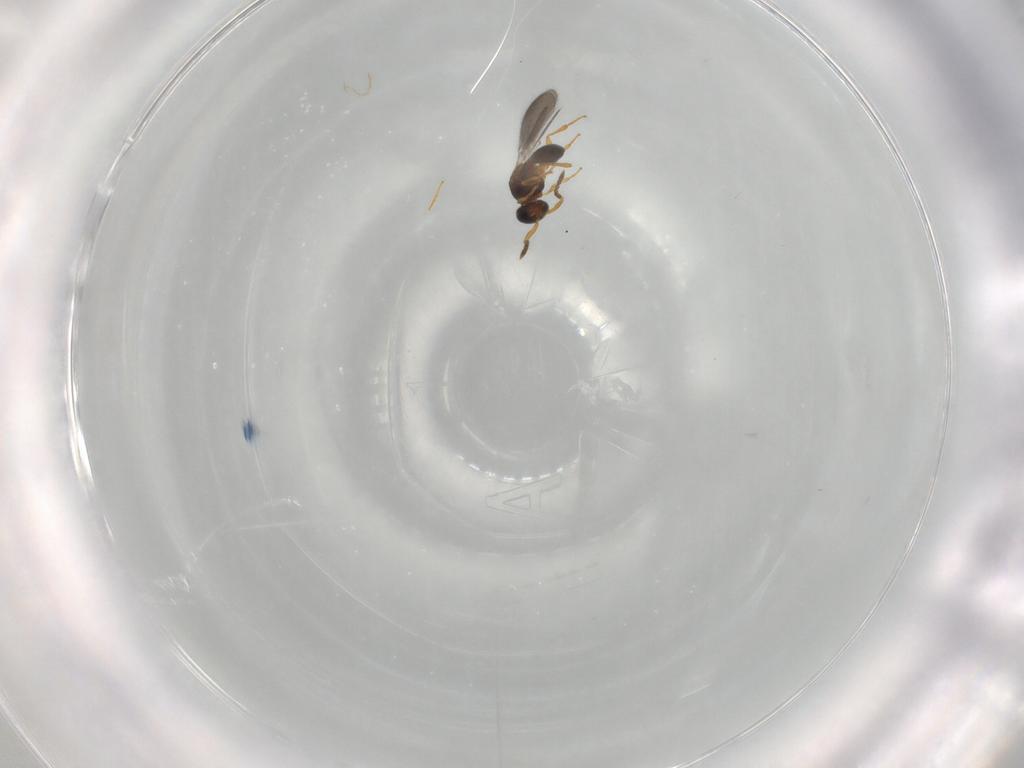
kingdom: Animalia
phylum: Arthropoda
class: Insecta
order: Hymenoptera
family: Platygastridae
